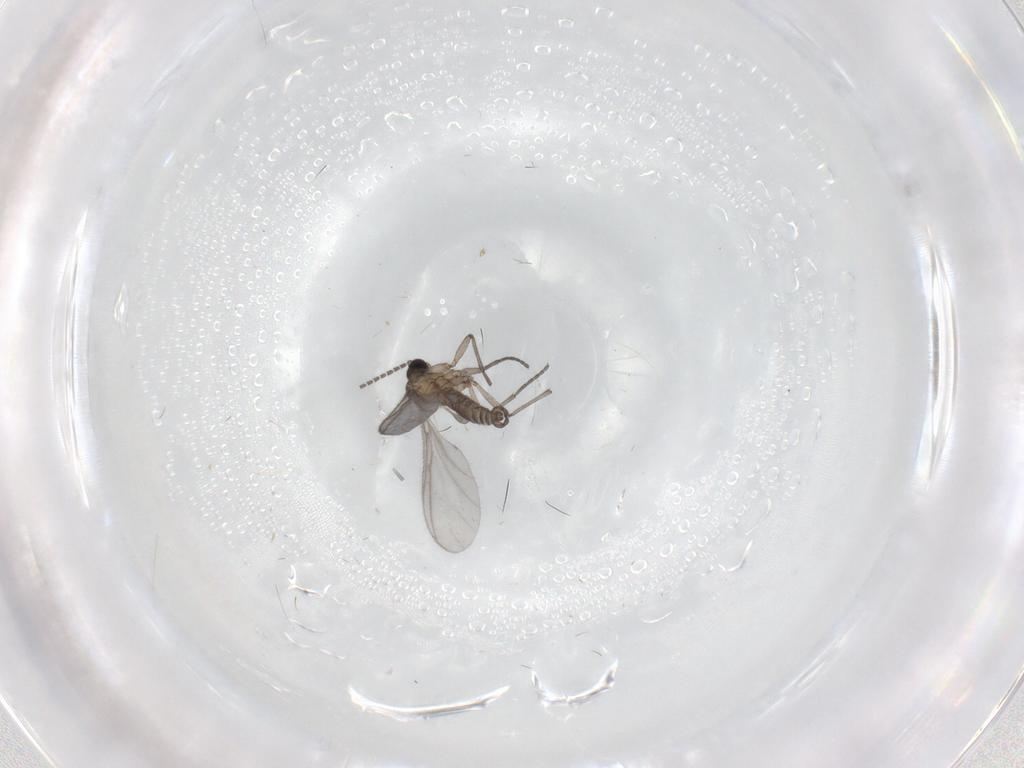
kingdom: Animalia
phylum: Arthropoda
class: Insecta
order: Diptera
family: Sciaridae
